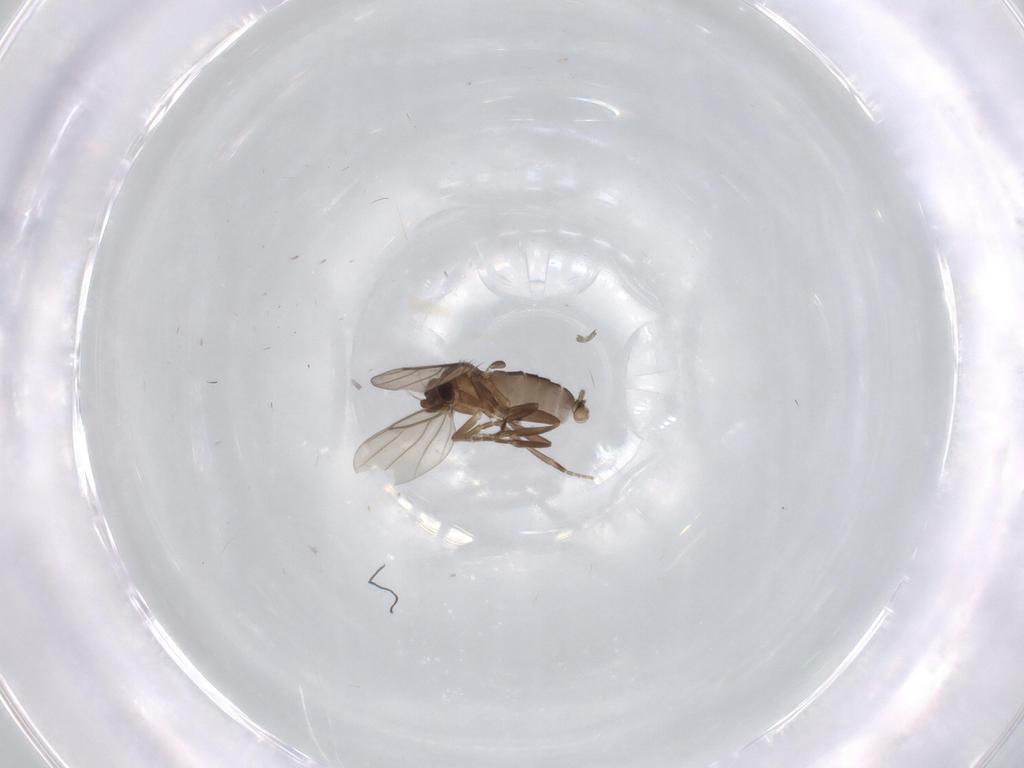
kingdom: Animalia
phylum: Arthropoda
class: Insecta
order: Diptera
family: Phoridae
